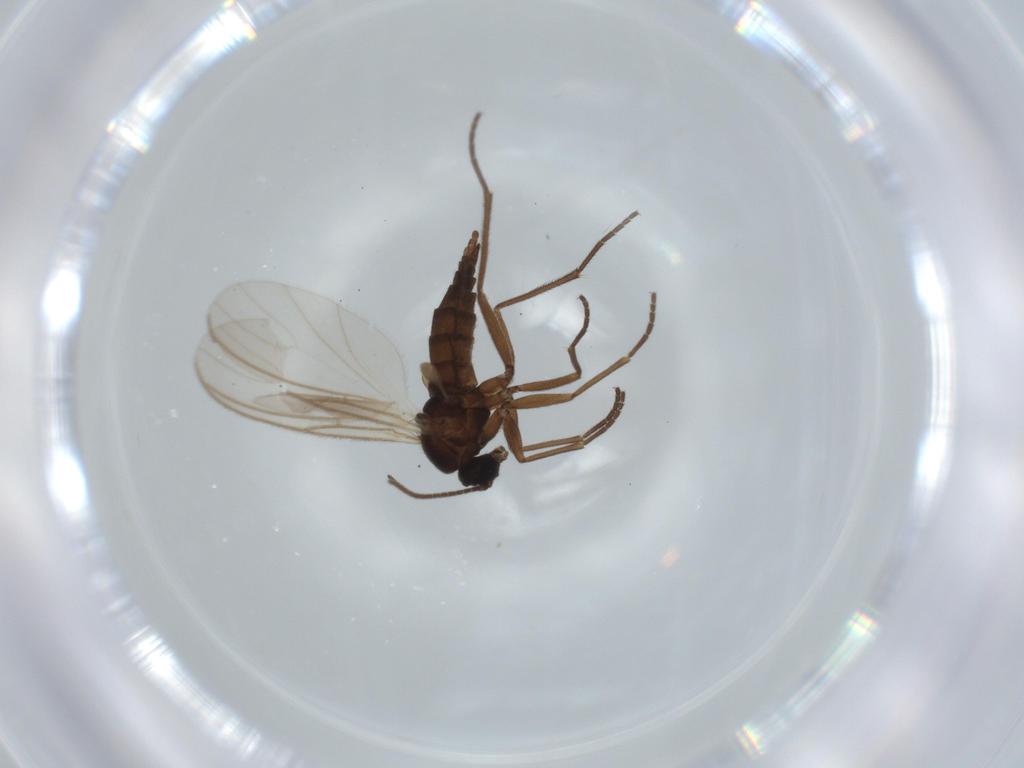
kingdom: Animalia
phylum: Arthropoda
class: Insecta
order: Diptera
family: Sciaridae
